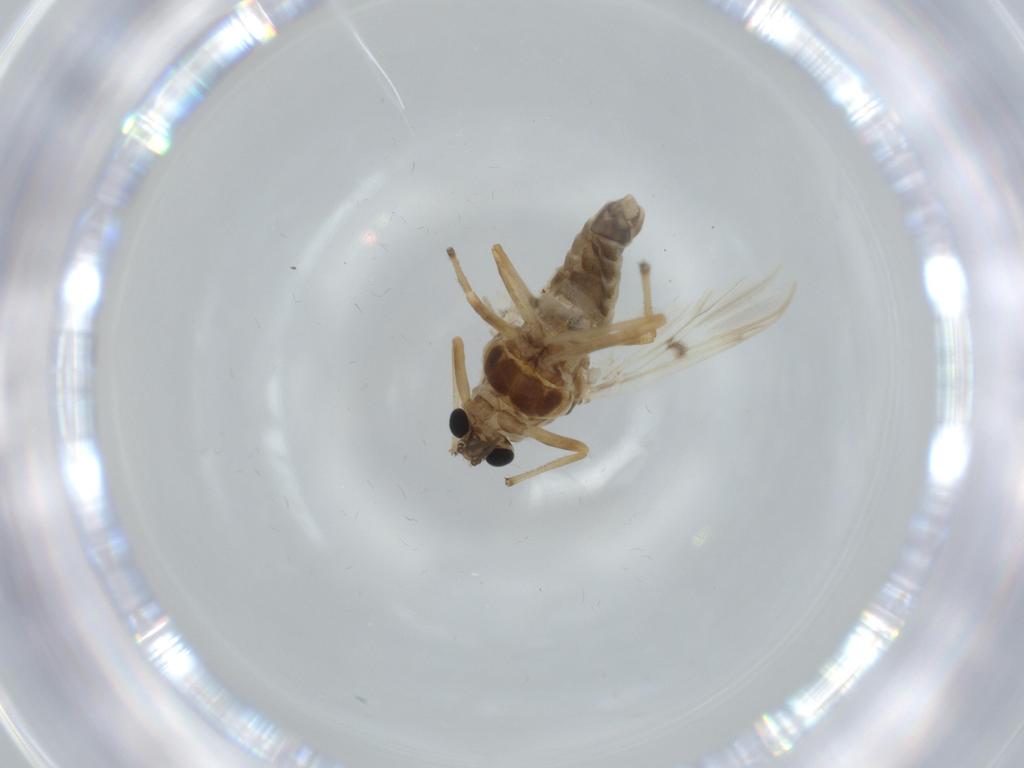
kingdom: Animalia
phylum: Arthropoda
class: Insecta
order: Diptera
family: Chironomidae
